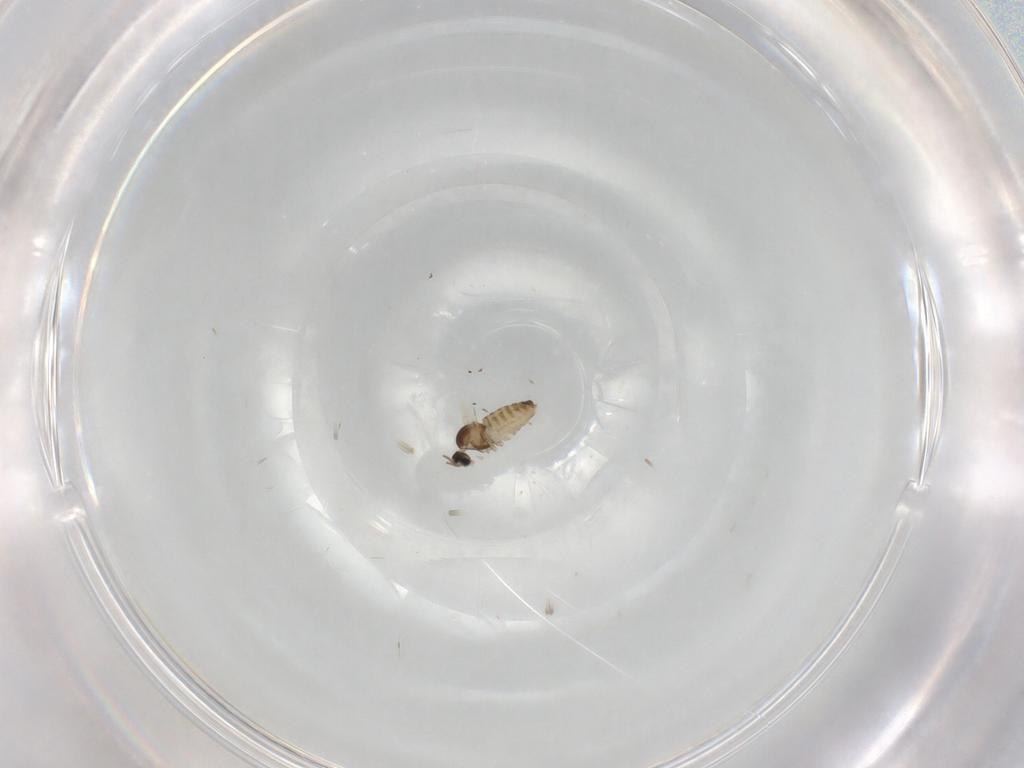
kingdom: Animalia
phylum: Arthropoda
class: Insecta
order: Diptera
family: Cecidomyiidae
